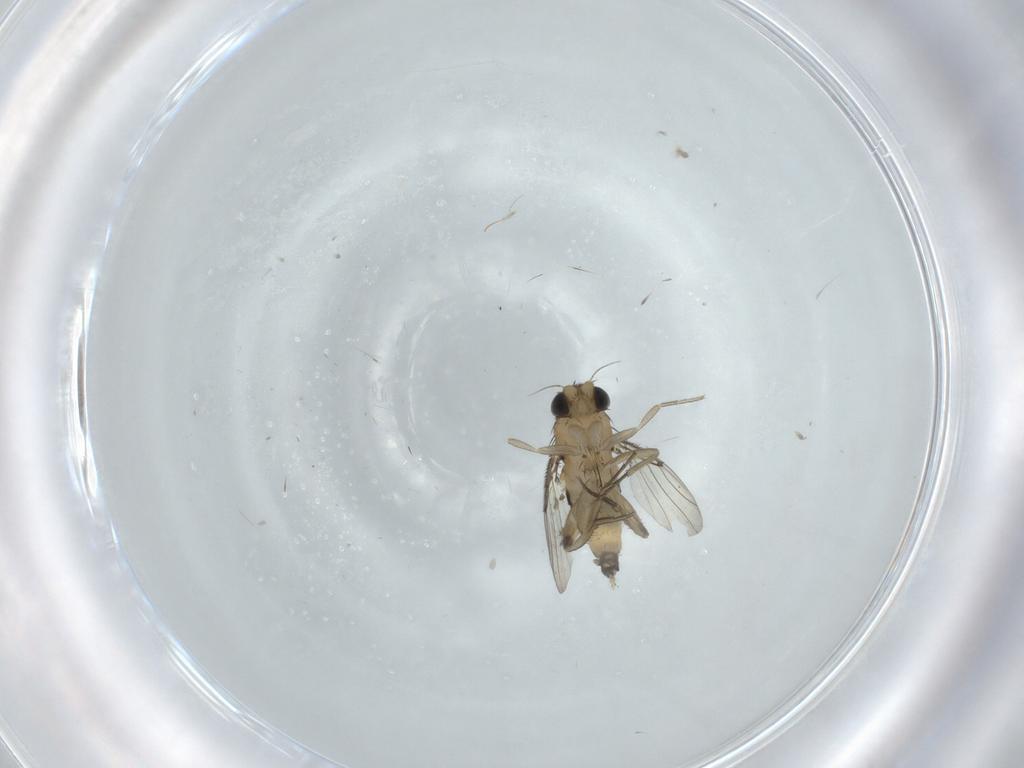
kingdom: Animalia
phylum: Arthropoda
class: Insecta
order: Diptera
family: Phoridae
